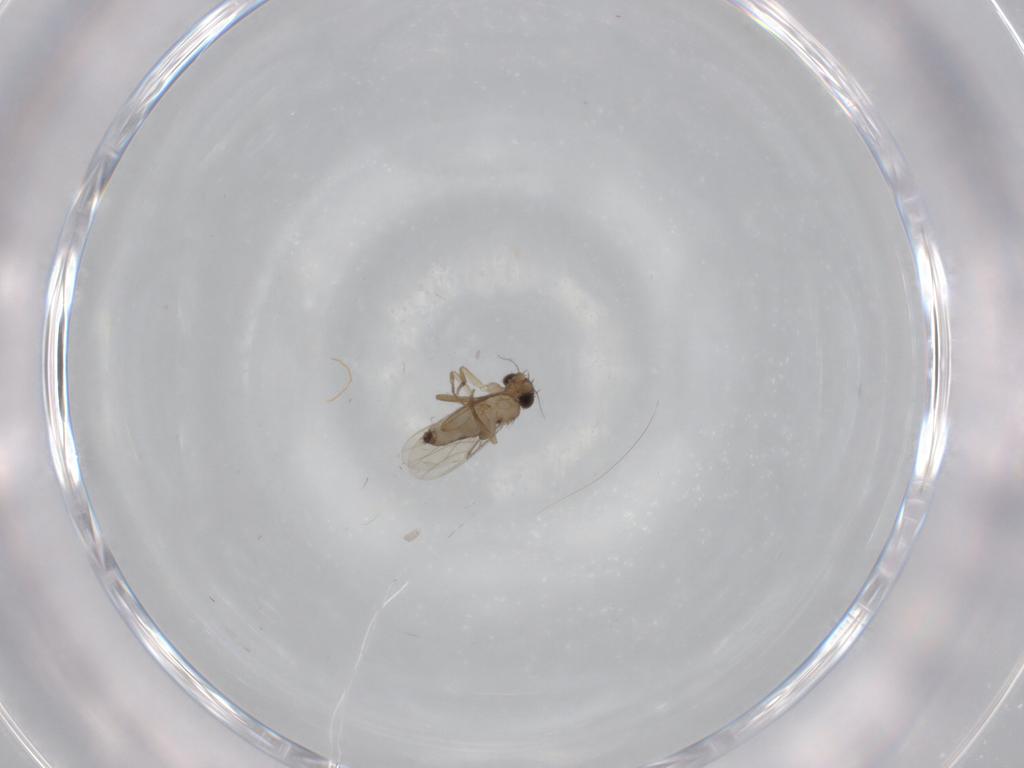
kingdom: Animalia
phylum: Arthropoda
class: Insecta
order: Diptera
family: Phoridae
